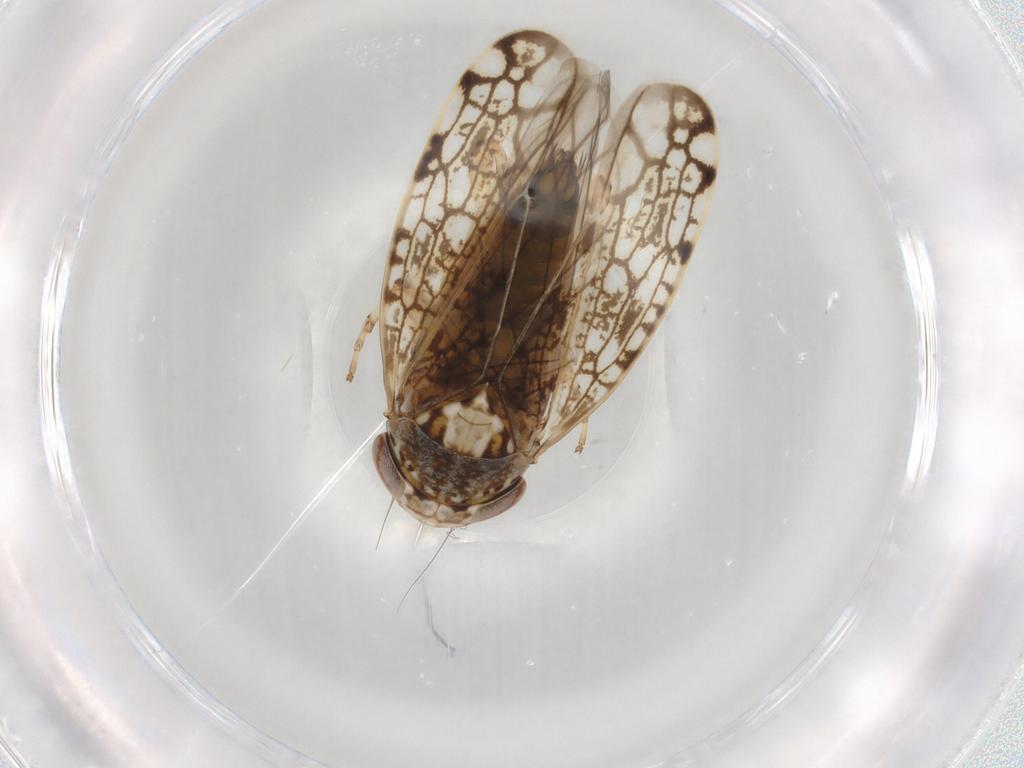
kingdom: Animalia
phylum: Arthropoda
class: Insecta
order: Hemiptera
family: Cicadellidae
